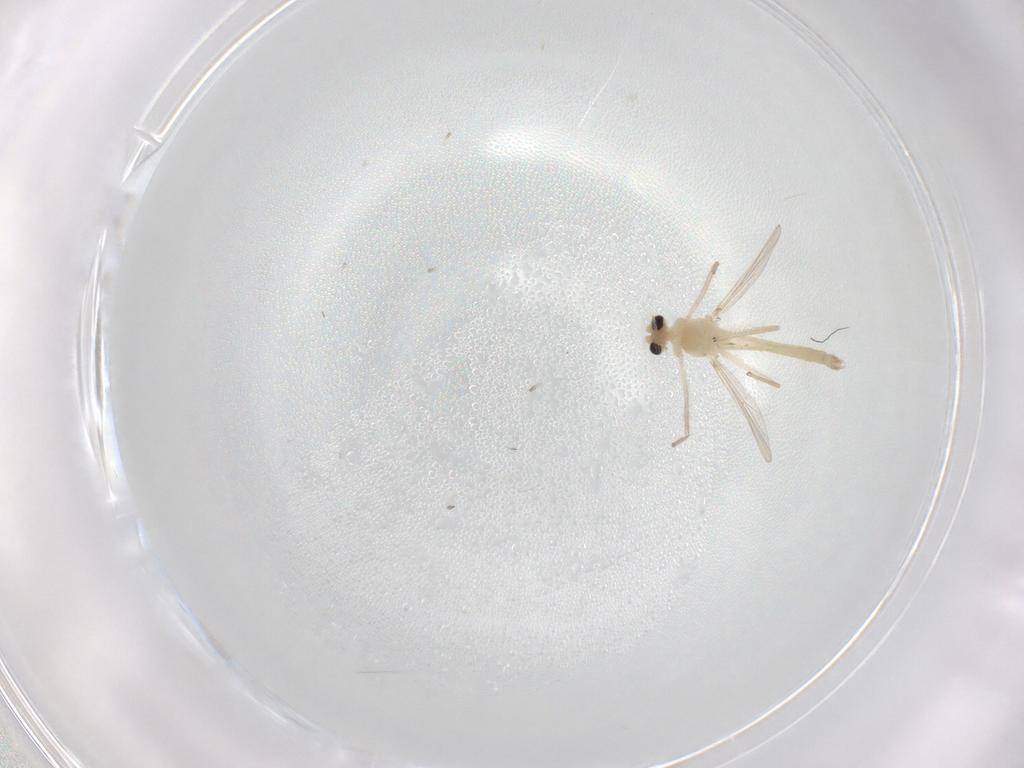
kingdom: Animalia
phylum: Arthropoda
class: Insecta
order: Diptera
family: Chironomidae
